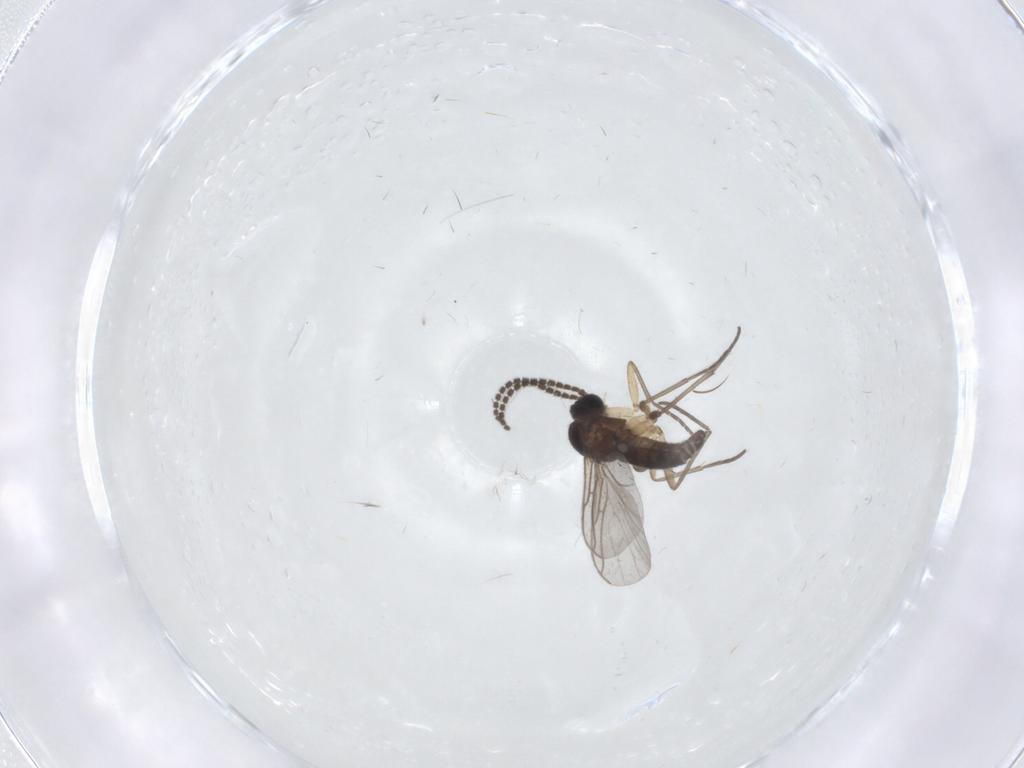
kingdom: Animalia
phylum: Arthropoda
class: Insecta
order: Diptera
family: Sciaridae
